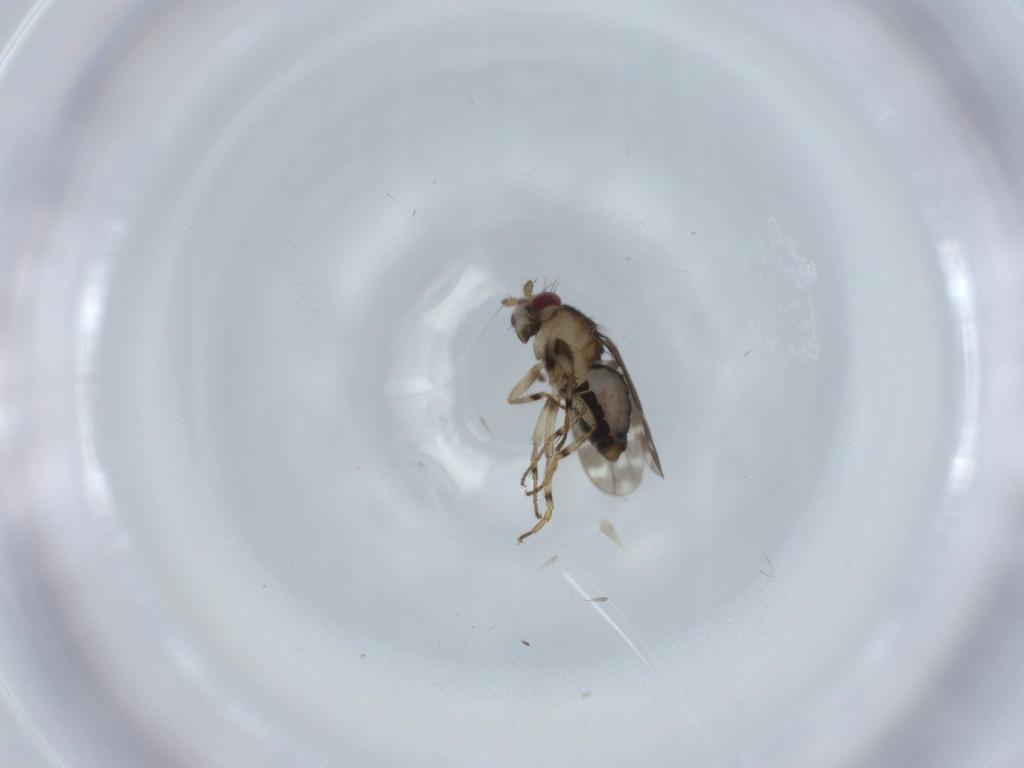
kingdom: Animalia
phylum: Arthropoda
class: Insecta
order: Diptera
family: Sphaeroceridae
